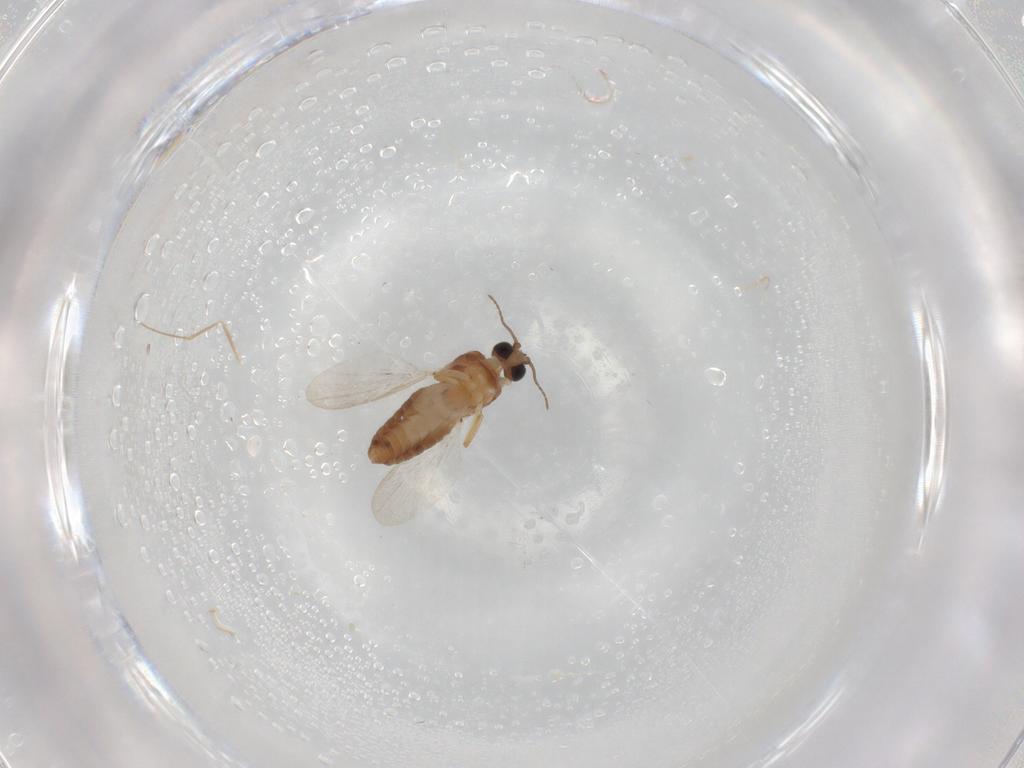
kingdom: Animalia
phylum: Arthropoda
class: Insecta
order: Diptera
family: Tipulidae
